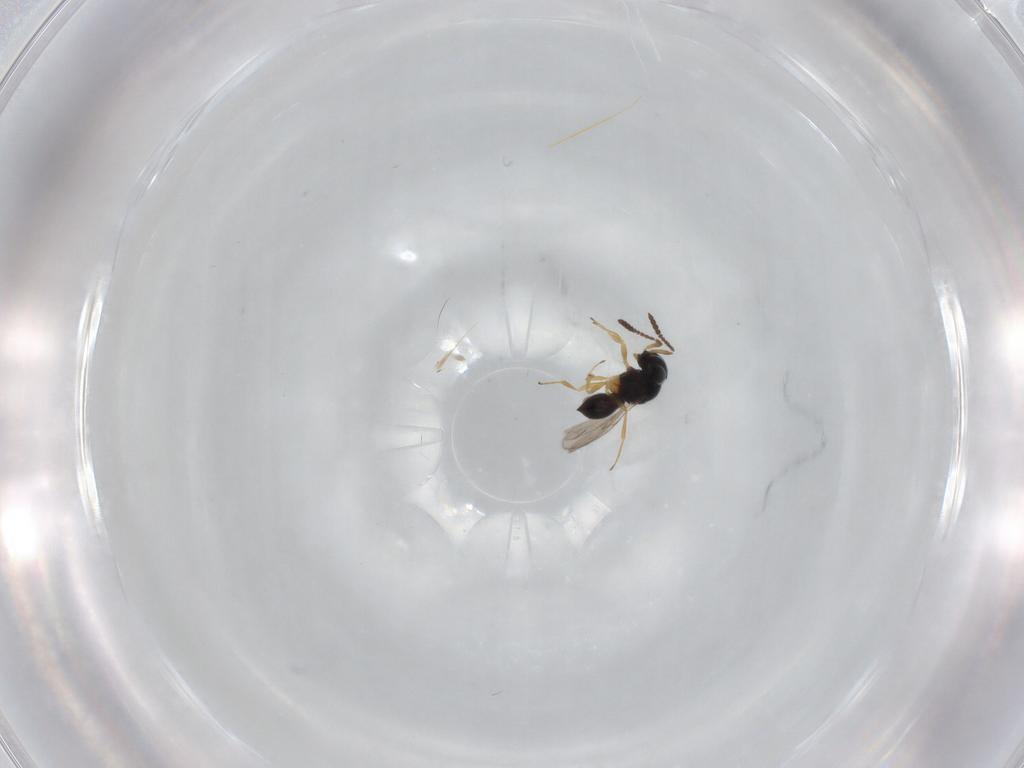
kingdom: Animalia
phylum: Arthropoda
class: Insecta
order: Hymenoptera
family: Scelionidae
